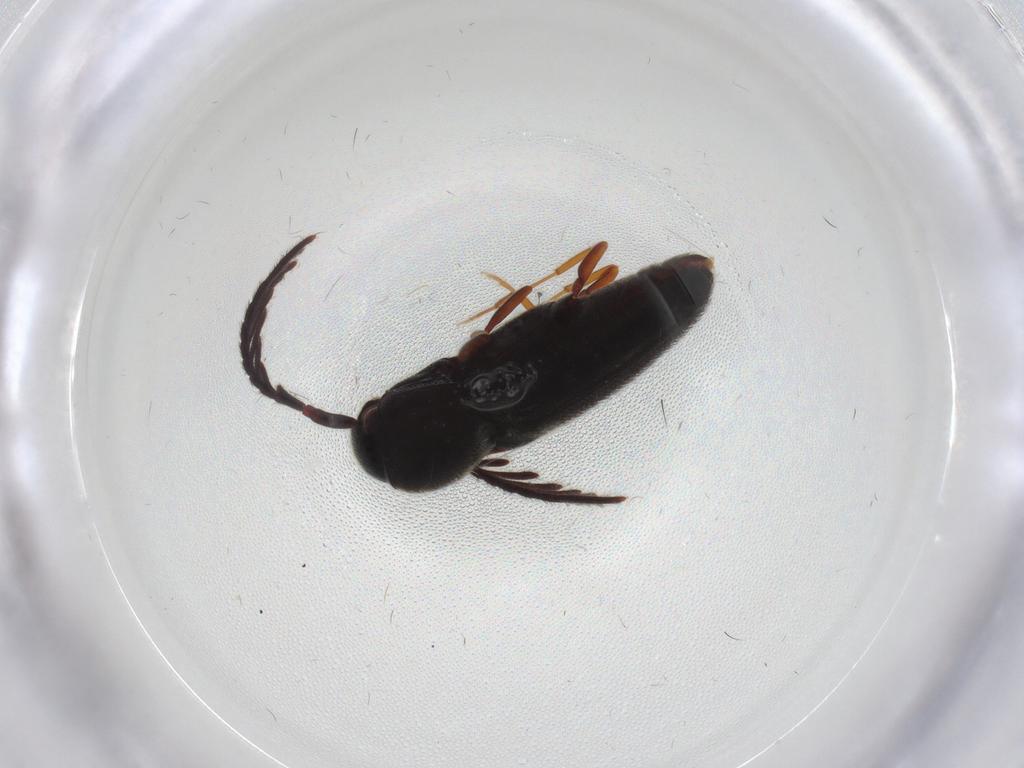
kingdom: Animalia
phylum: Arthropoda
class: Insecta
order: Coleoptera
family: Eucnemidae
